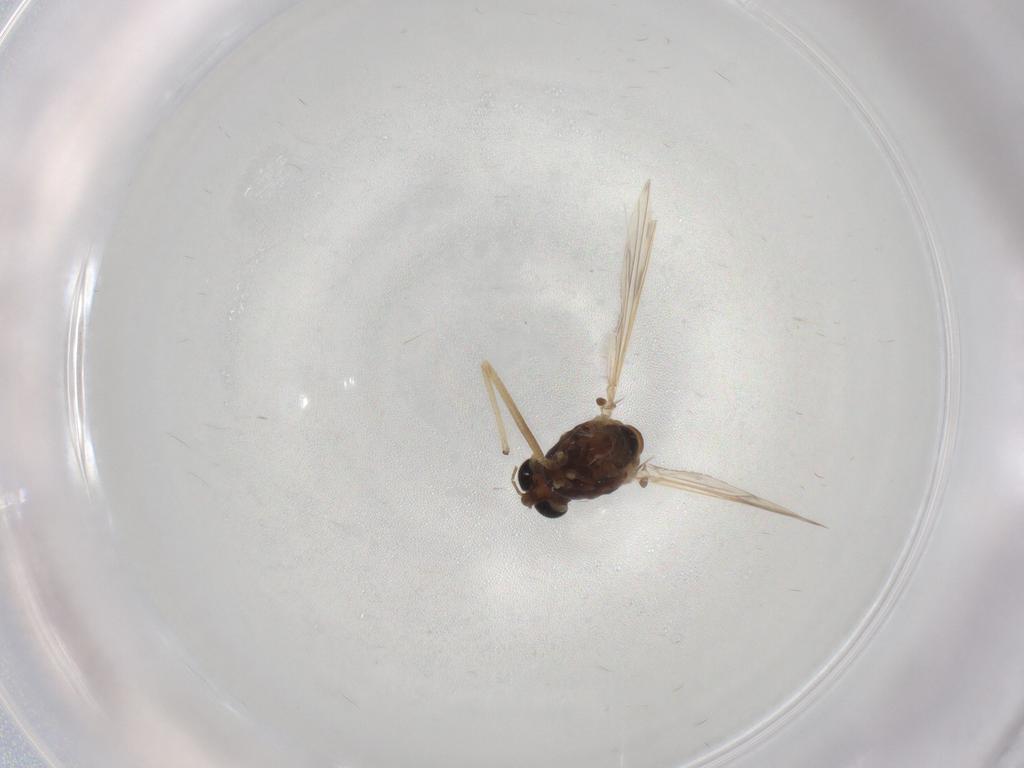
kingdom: Animalia
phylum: Arthropoda
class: Insecta
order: Diptera
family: Chironomidae
